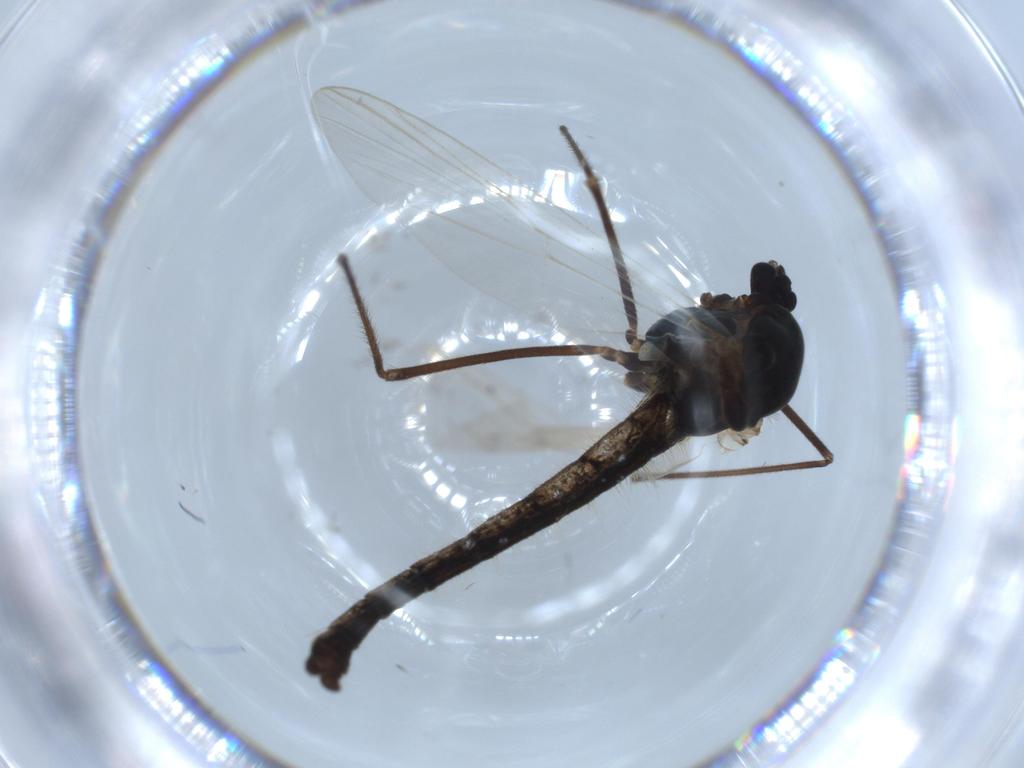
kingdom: Animalia
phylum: Arthropoda
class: Insecta
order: Diptera
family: Chironomidae
